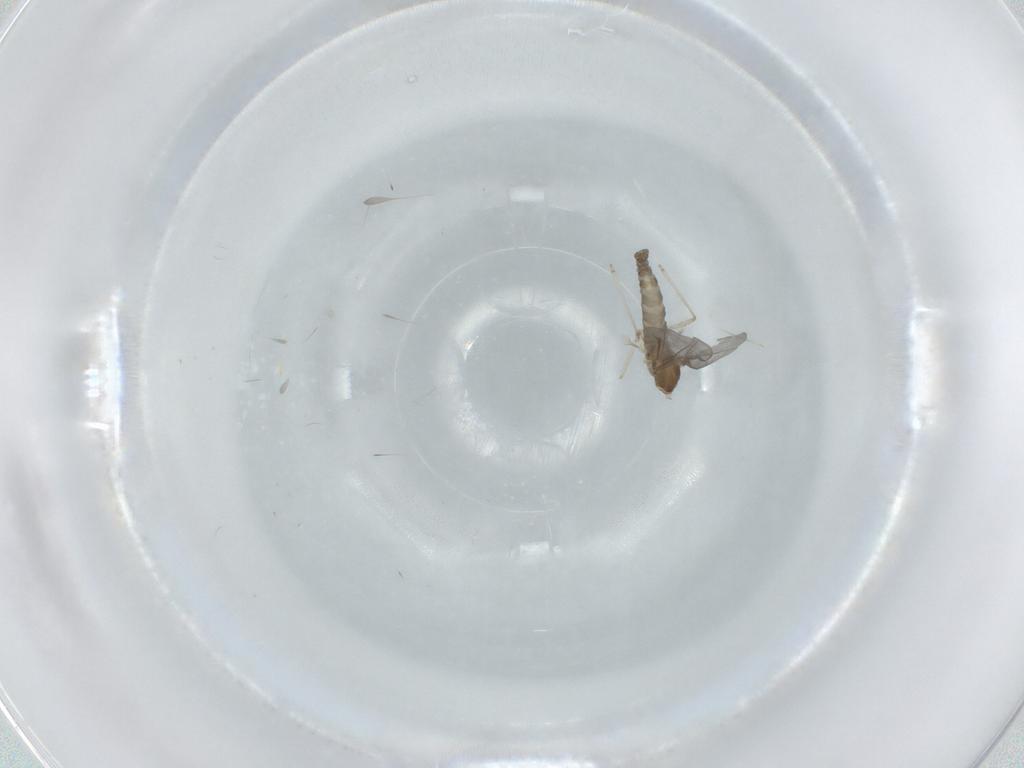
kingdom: Animalia
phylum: Arthropoda
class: Insecta
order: Diptera
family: Cecidomyiidae
